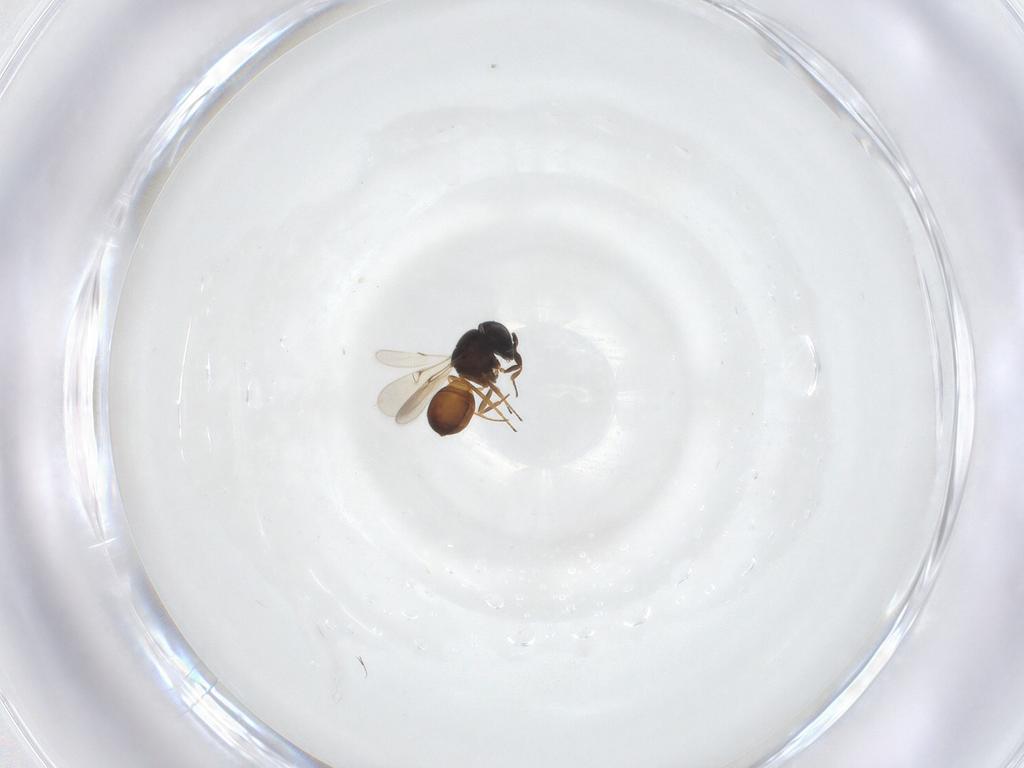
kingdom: Animalia
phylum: Arthropoda
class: Insecta
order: Hymenoptera
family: Scelionidae
